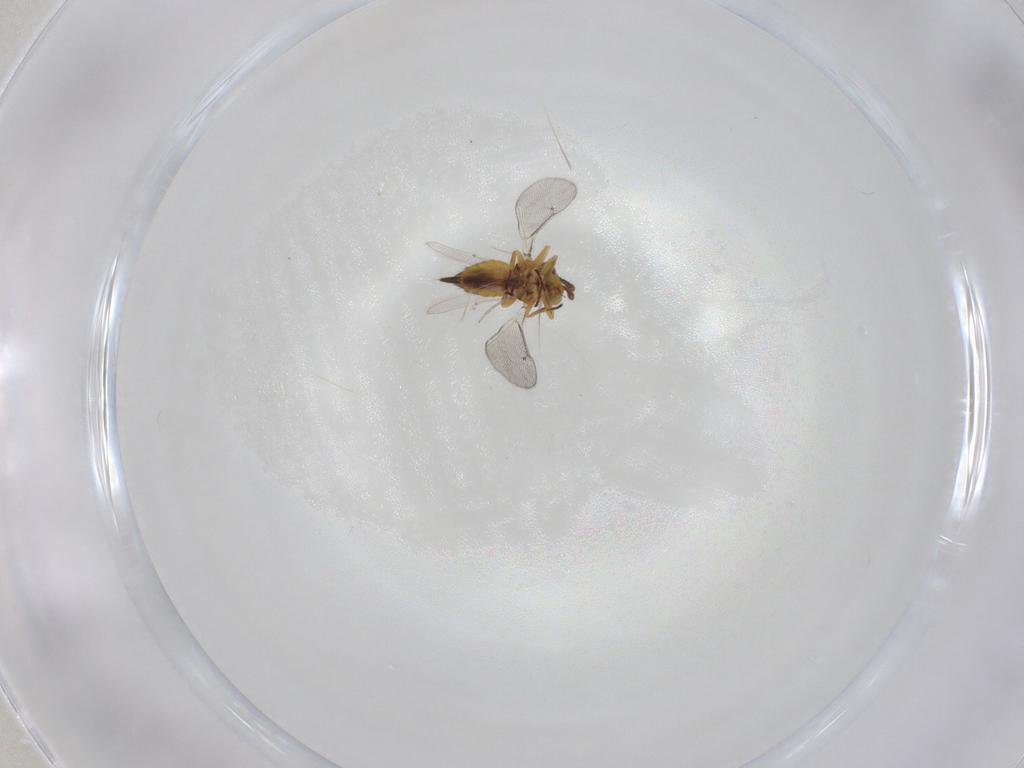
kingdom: Animalia
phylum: Arthropoda
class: Insecta
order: Hymenoptera
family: Eulophidae
